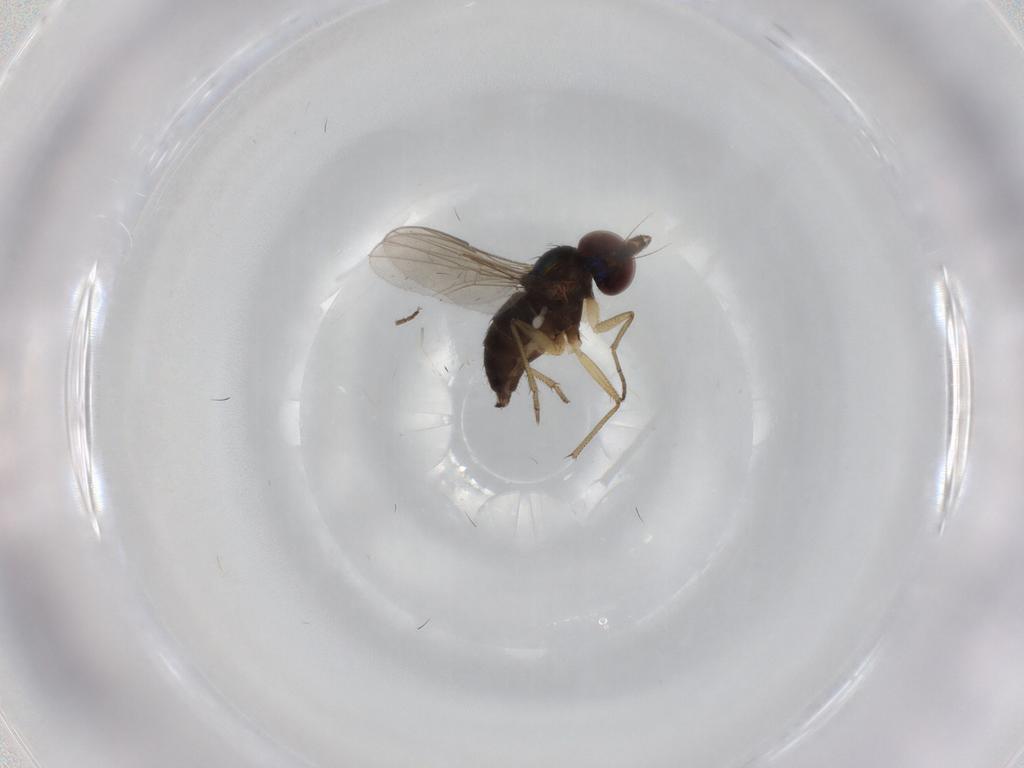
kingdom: Animalia
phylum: Arthropoda
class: Insecta
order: Diptera
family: Dolichopodidae
